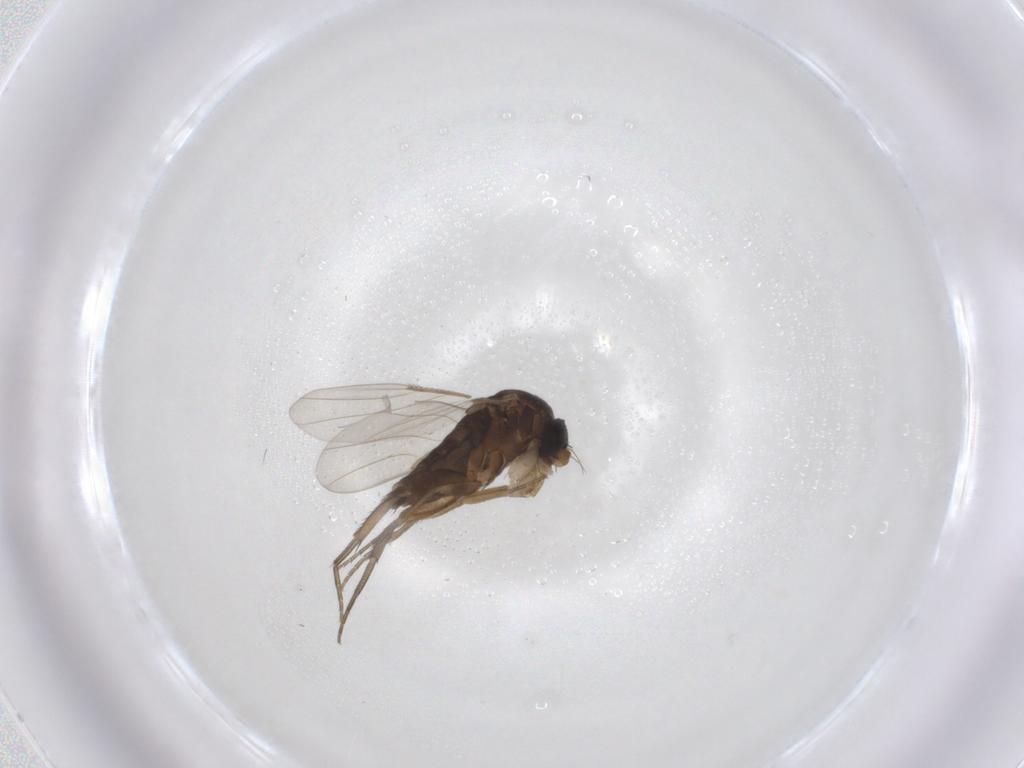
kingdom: Animalia
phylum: Arthropoda
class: Insecta
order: Diptera
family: Phoridae
